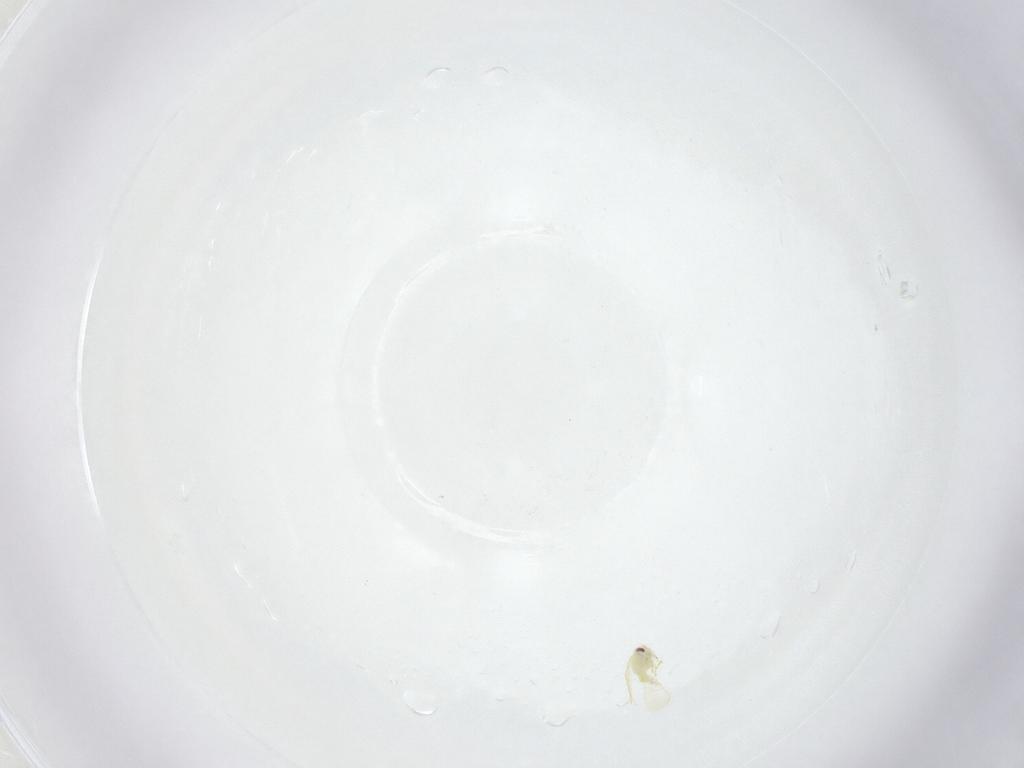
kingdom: Animalia
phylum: Arthropoda
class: Insecta
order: Hemiptera
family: Aleyrodidae
